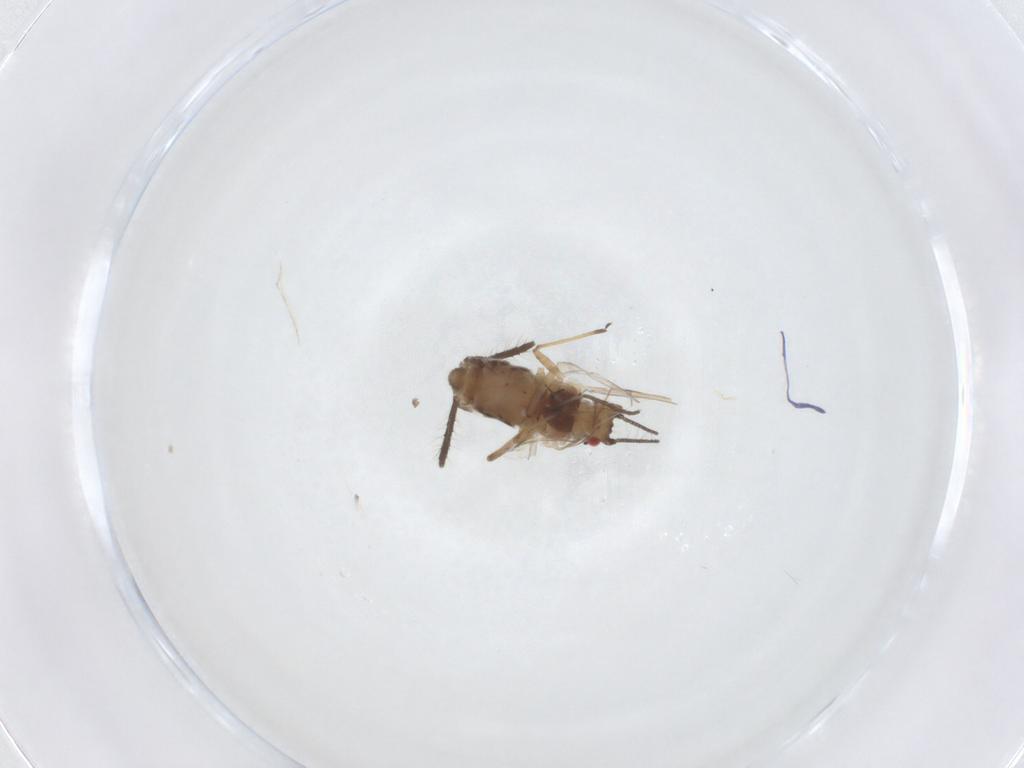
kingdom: Animalia
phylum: Arthropoda
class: Insecta
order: Hemiptera
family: Aphididae
